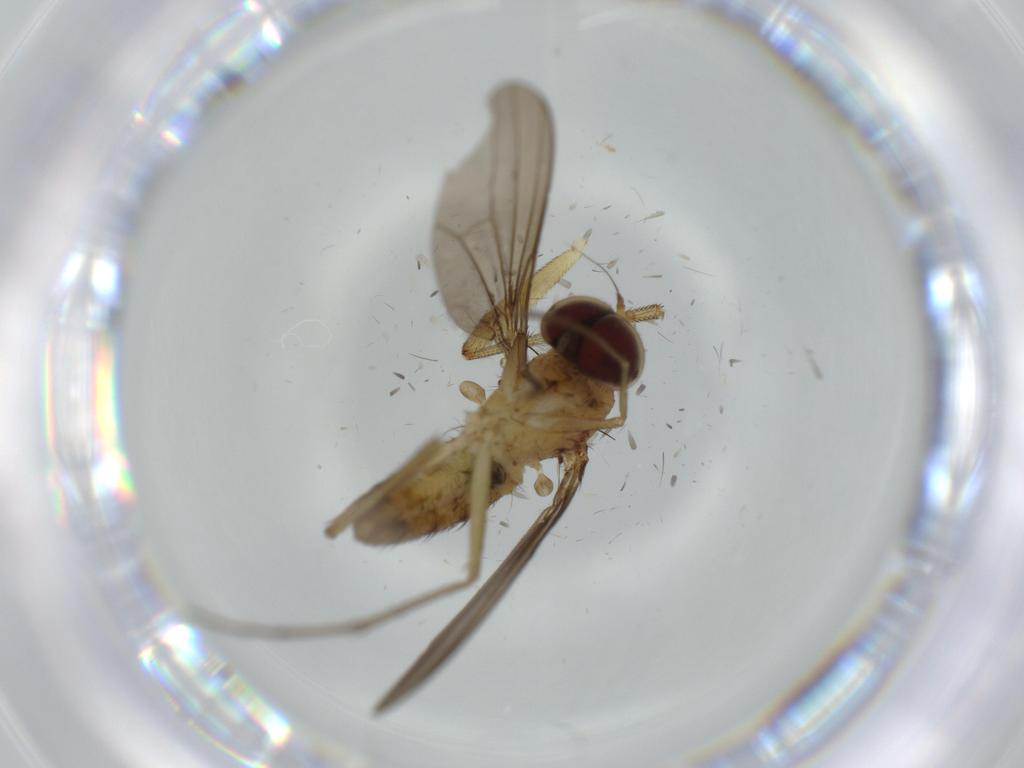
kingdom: Animalia
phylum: Arthropoda
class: Insecta
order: Diptera
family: Dolichopodidae
